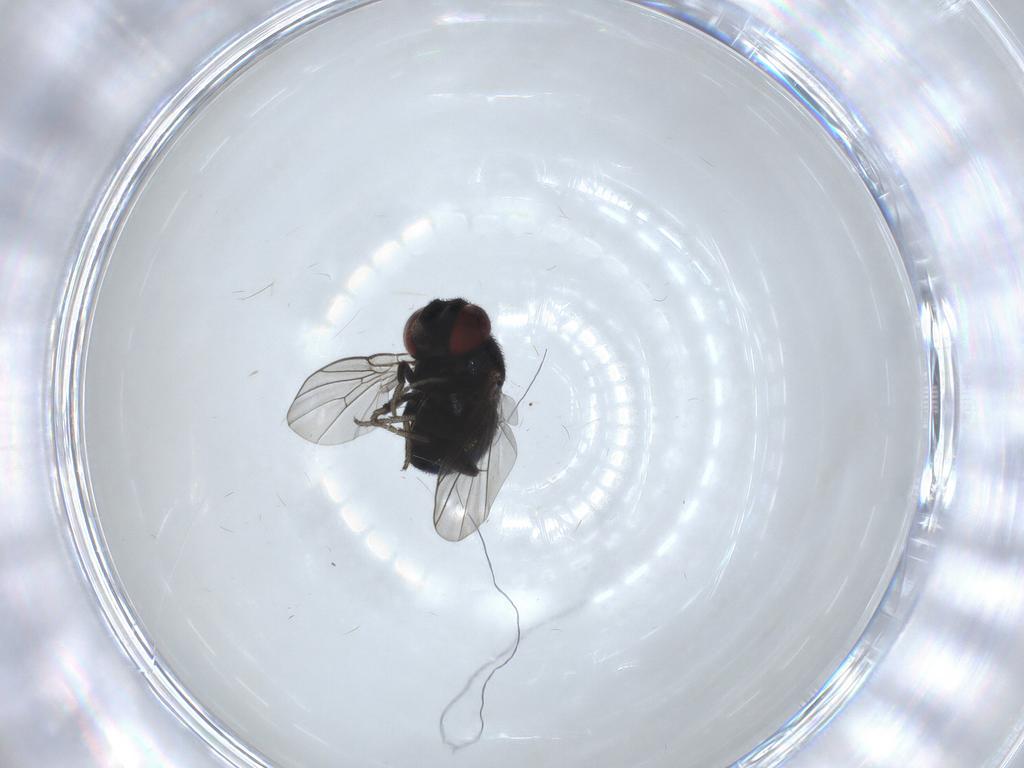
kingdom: Animalia
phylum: Arthropoda
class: Insecta
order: Diptera
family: Cryptochetidae
